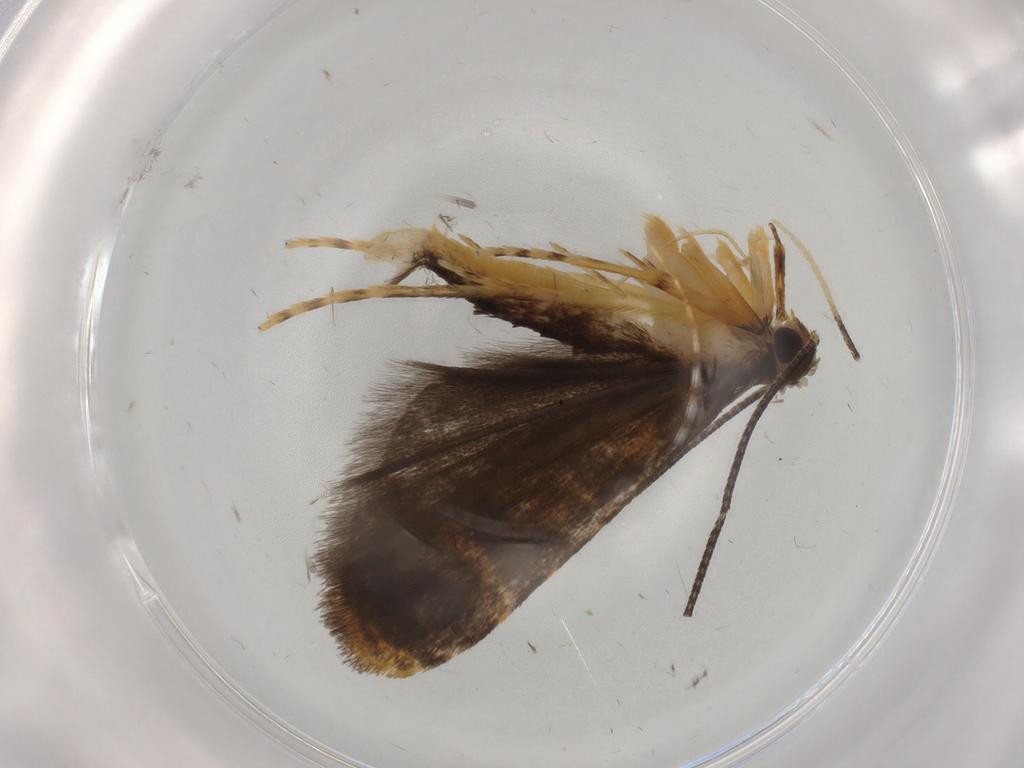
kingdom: Animalia
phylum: Arthropoda
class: Insecta
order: Lepidoptera
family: Cosmopterigidae
